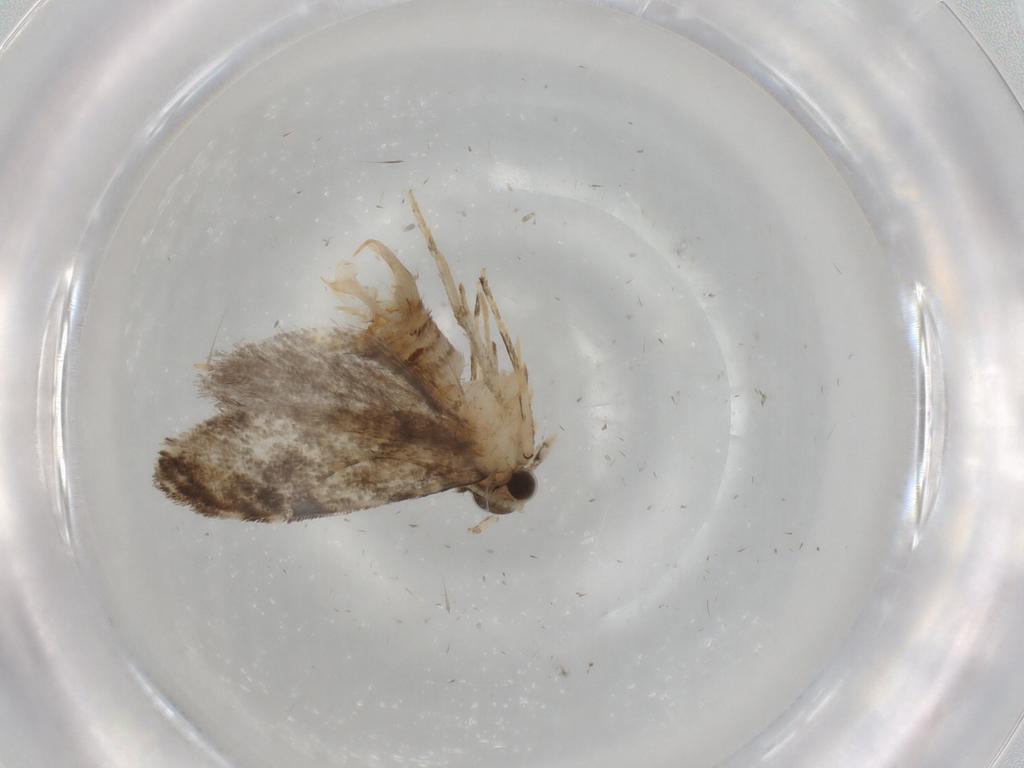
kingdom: Animalia
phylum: Arthropoda
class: Insecta
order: Lepidoptera
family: Tineidae
